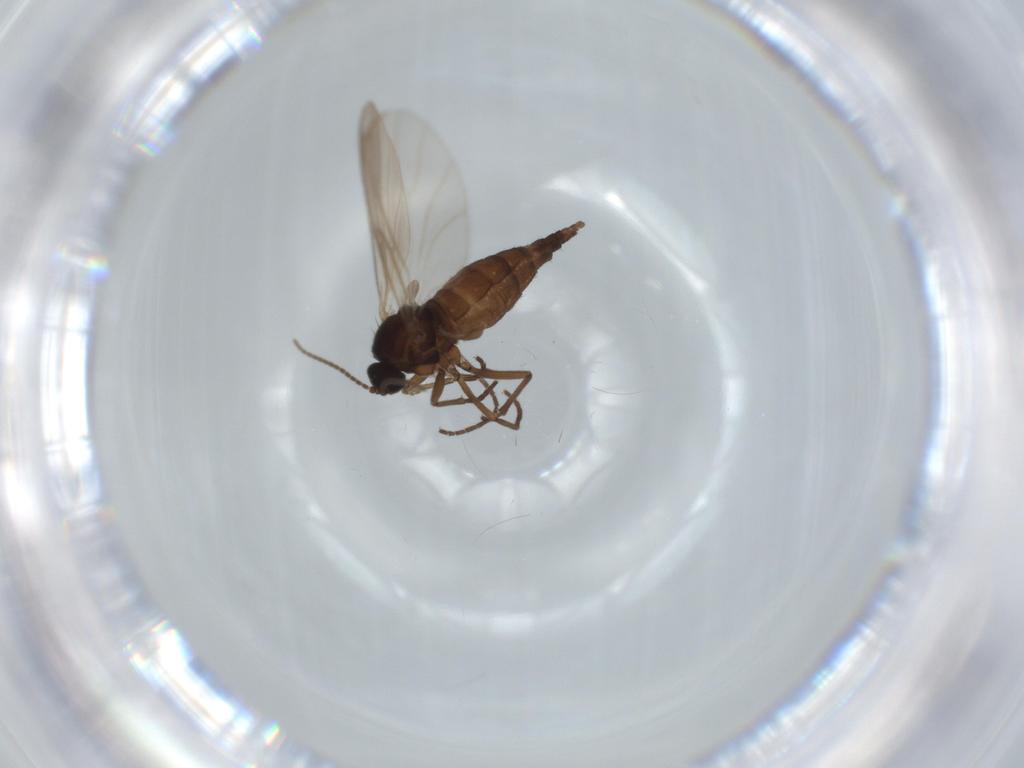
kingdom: Animalia
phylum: Arthropoda
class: Insecta
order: Diptera
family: Sciaridae
